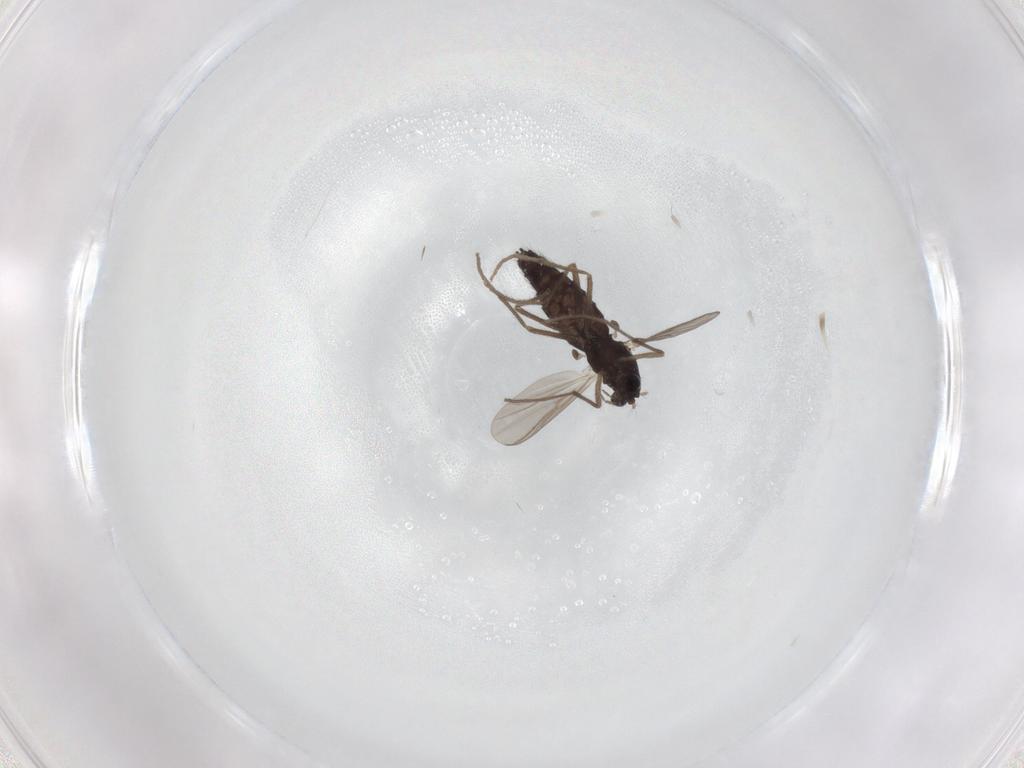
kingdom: Animalia
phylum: Arthropoda
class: Insecta
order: Diptera
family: Chironomidae
